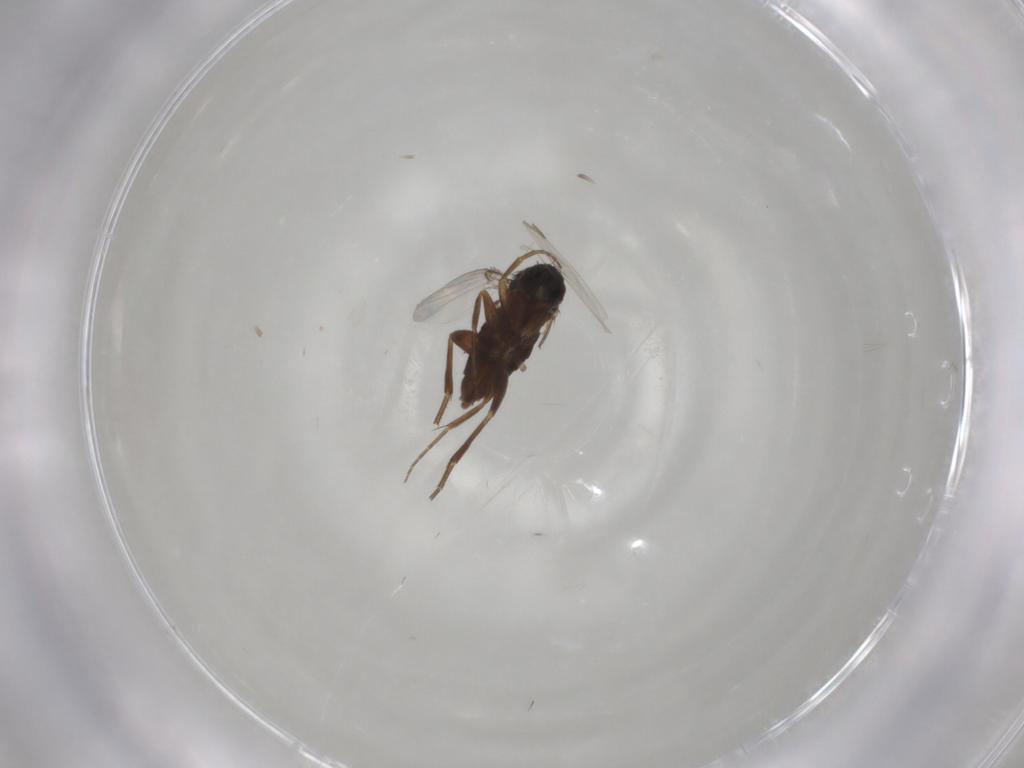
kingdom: Animalia
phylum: Arthropoda
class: Insecta
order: Diptera
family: Phoridae
